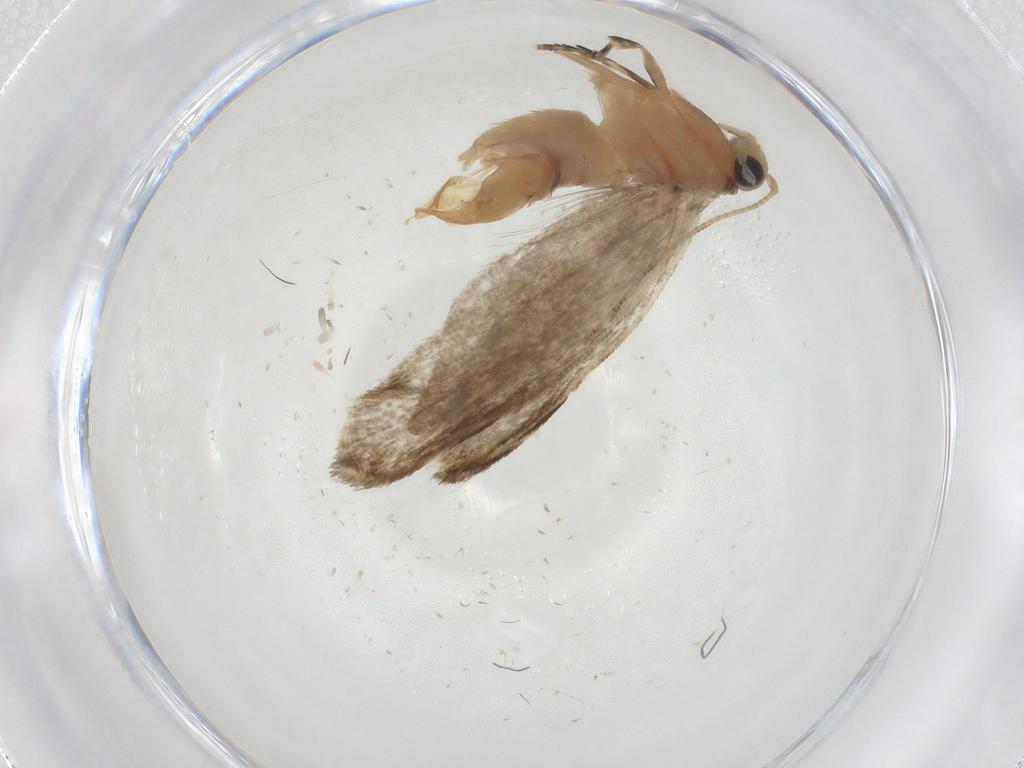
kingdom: Animalia
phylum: Arthropoda
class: Insecta
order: Lepidoptera
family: Tineidae
